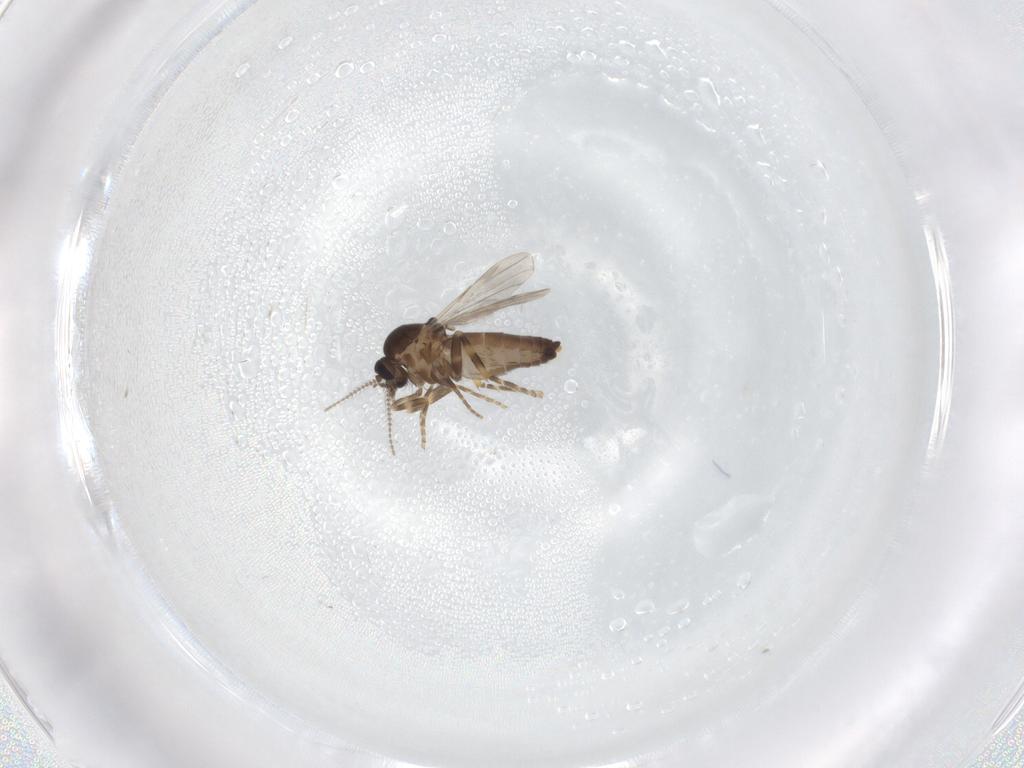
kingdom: Animalia
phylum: Arthropoda
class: Insecta
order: Diptera
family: Ceratopogonidae
